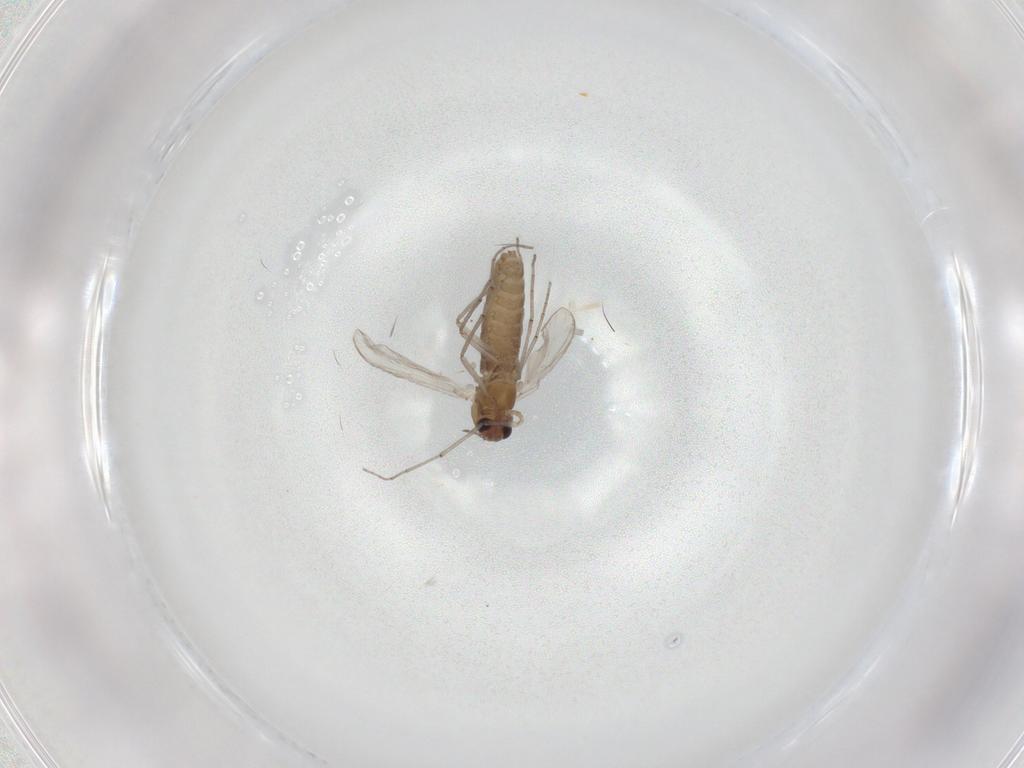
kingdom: Animalia
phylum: Arthropoda
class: Insecta
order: Diptera
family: Chironomidae
